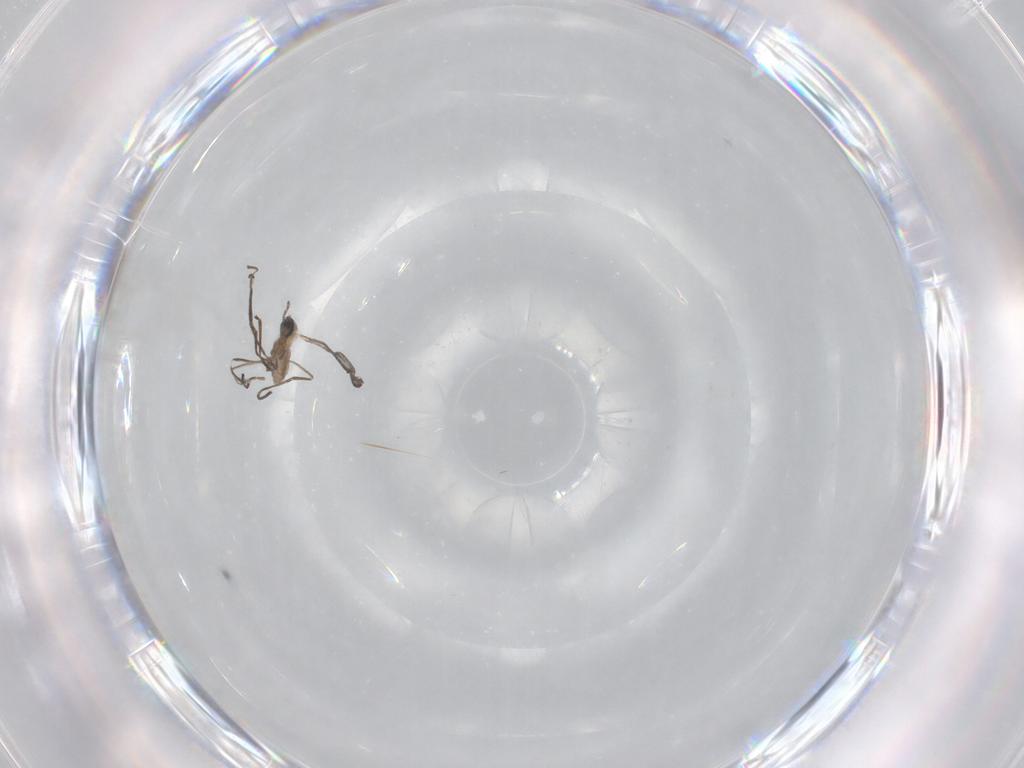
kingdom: Animalia
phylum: Arthropoda
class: Insecta
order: Diptera
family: Cecidomyiidae
